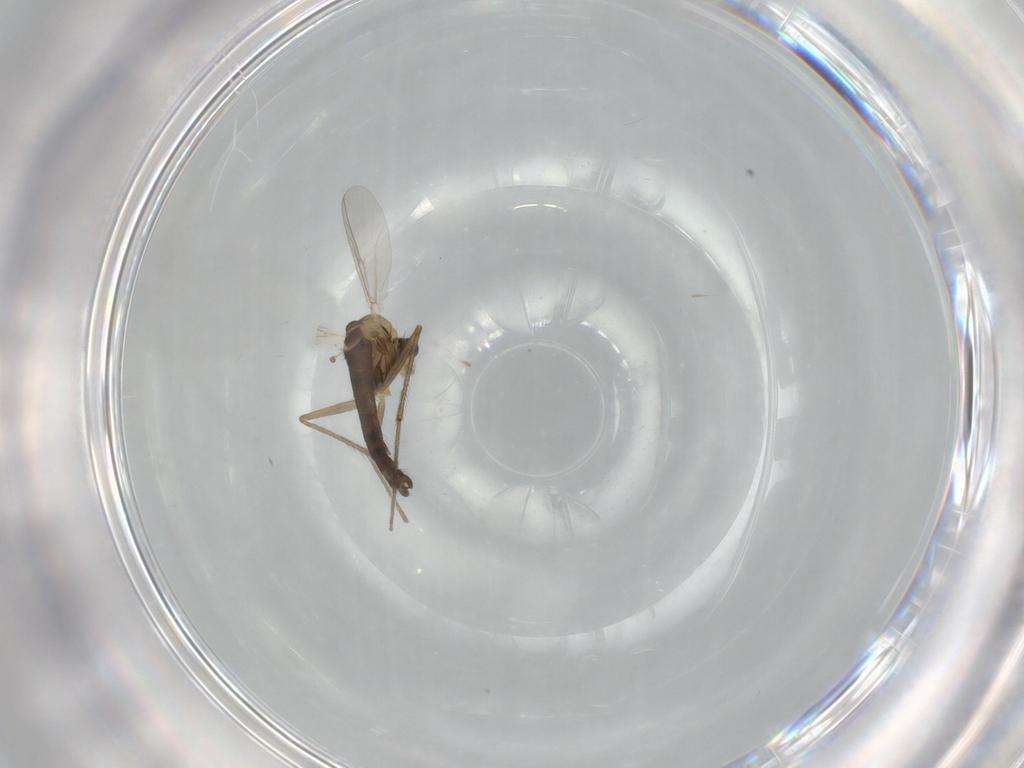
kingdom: Animalia
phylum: Arthropoda
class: Insecta
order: Diptera
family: Chironomidae
